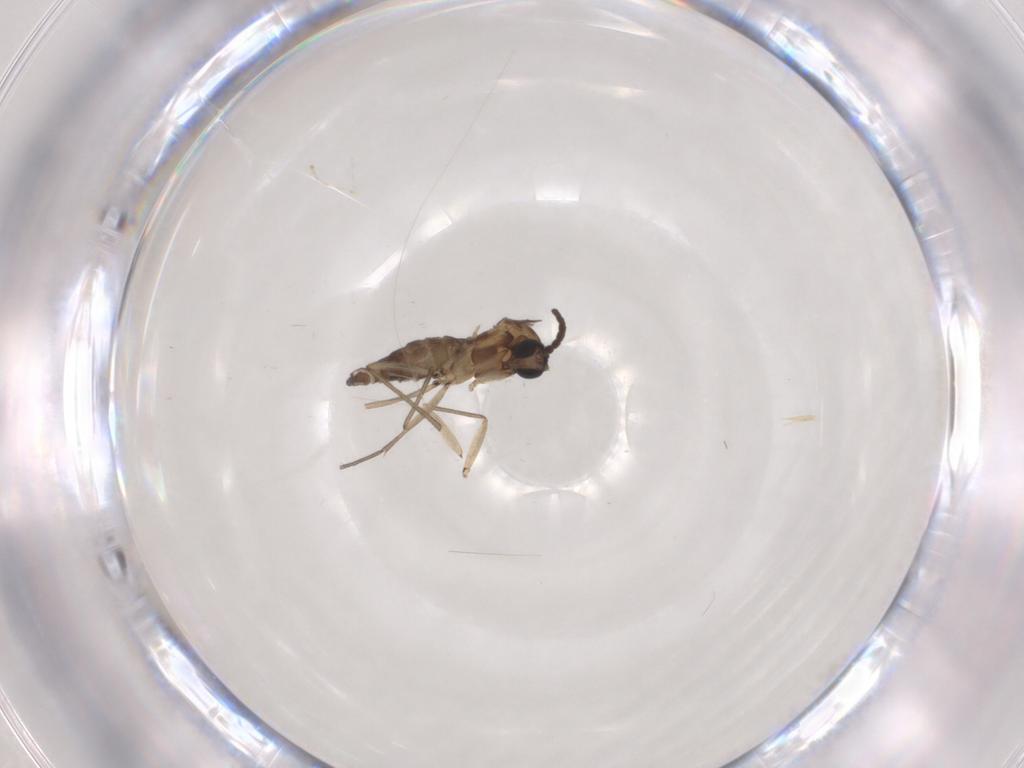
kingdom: Animalia
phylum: Arthropoda
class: Insecta
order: Diptera
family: Sciaridae
